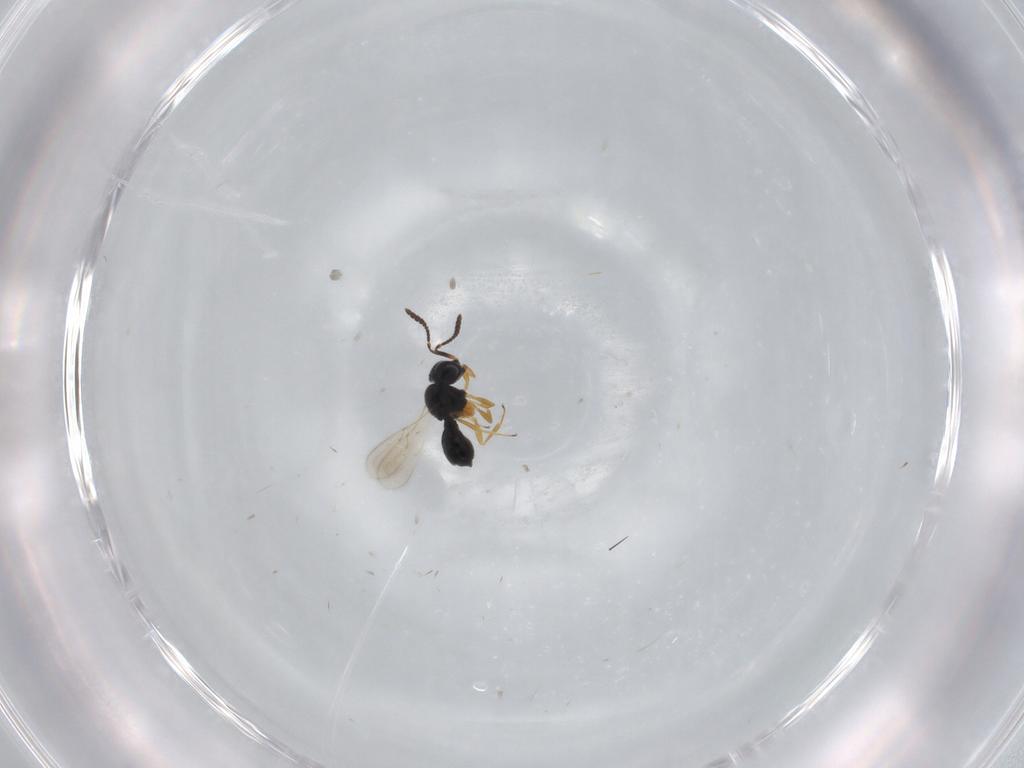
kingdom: Animalia
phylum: Arthropoda
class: Insecta
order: Hymenoptera
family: Scelionidae
